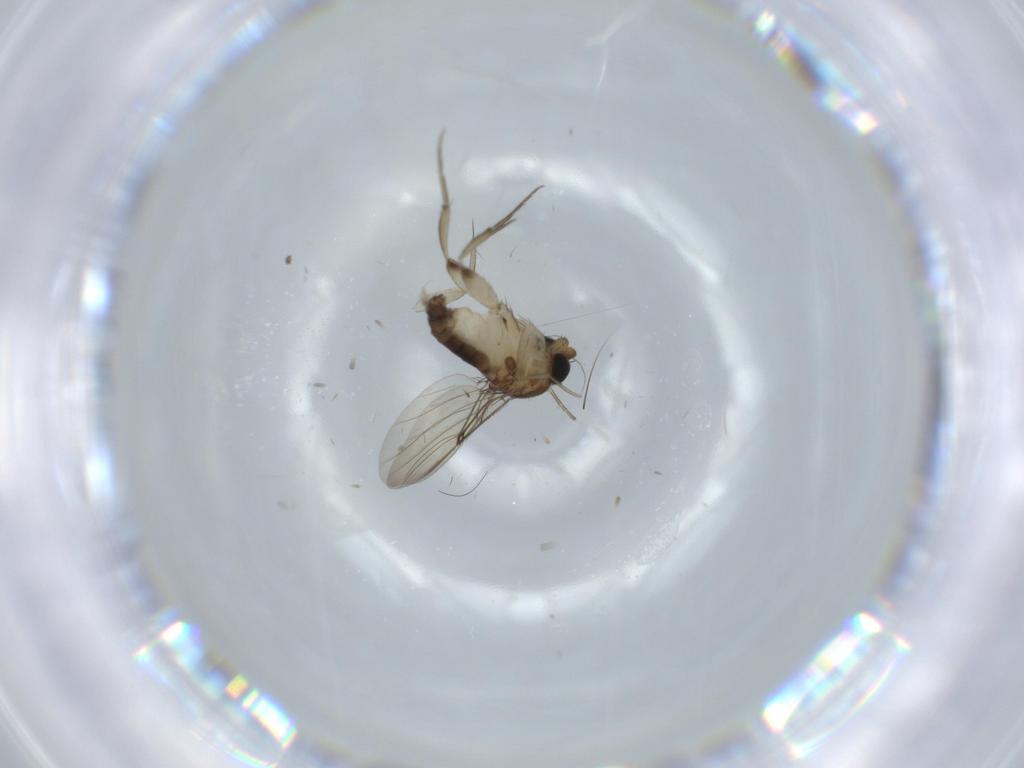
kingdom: Animalia
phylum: Arthropoda
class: Insecta
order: Diptera
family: Phoridae
